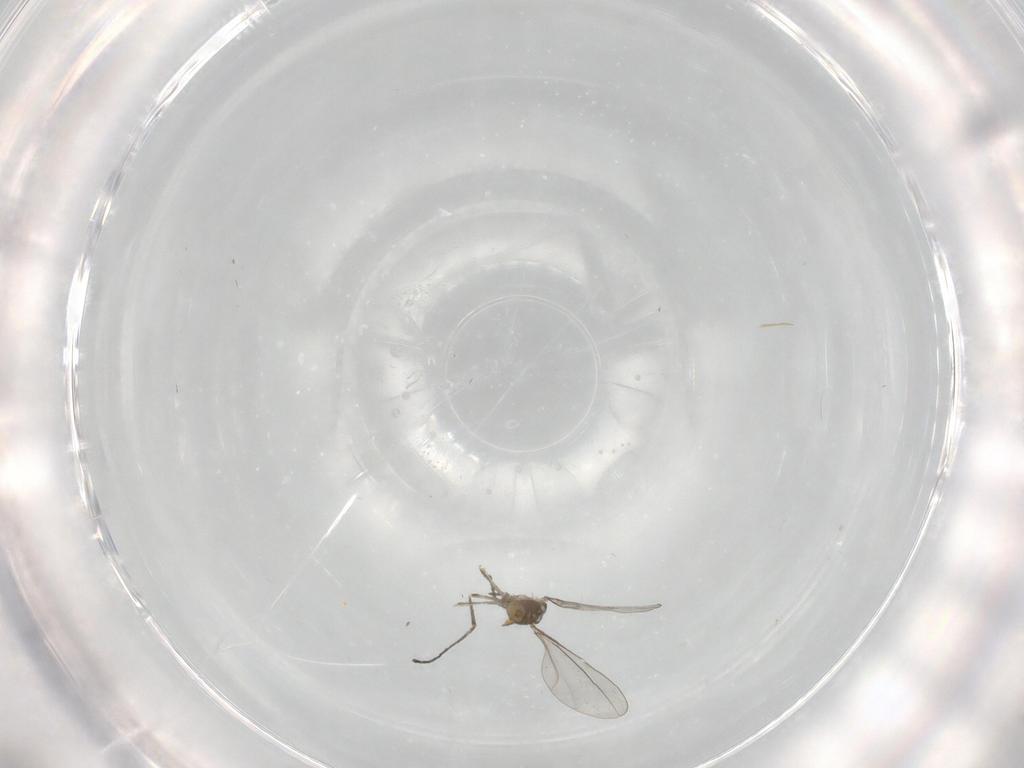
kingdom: Animalia
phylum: Arthropoda
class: Insecta
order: Diptera
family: Cecidomyiidae
